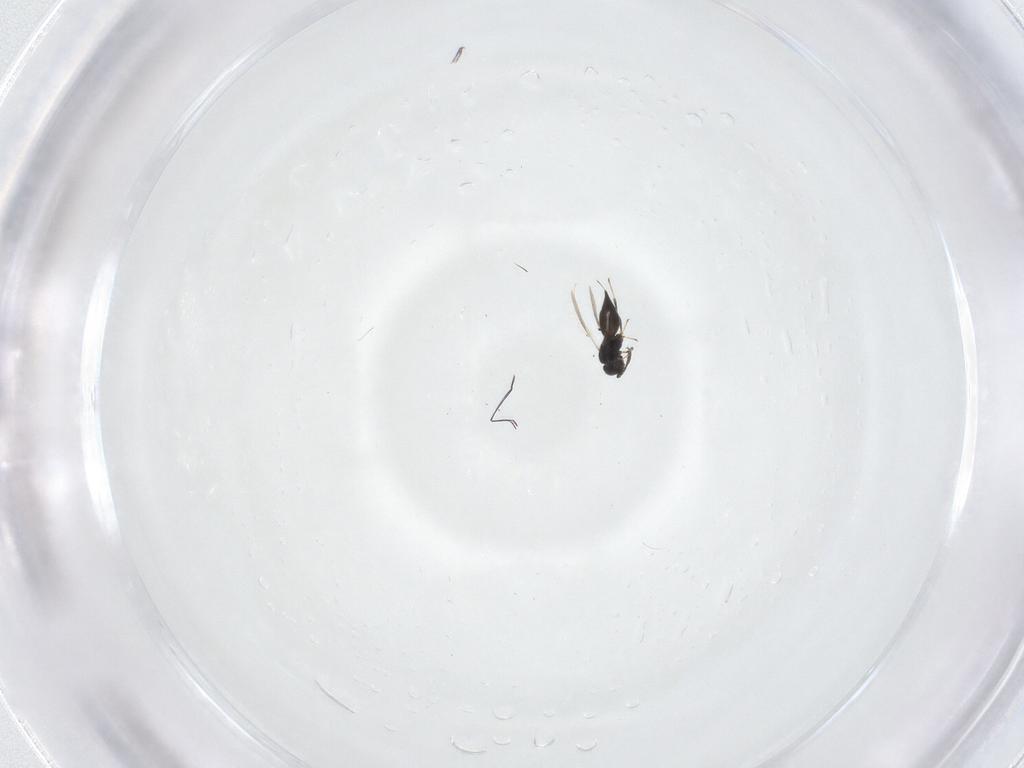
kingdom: Animalia
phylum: Arthropoda
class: Insecta
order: Hymenoptera
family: Scelionidae
